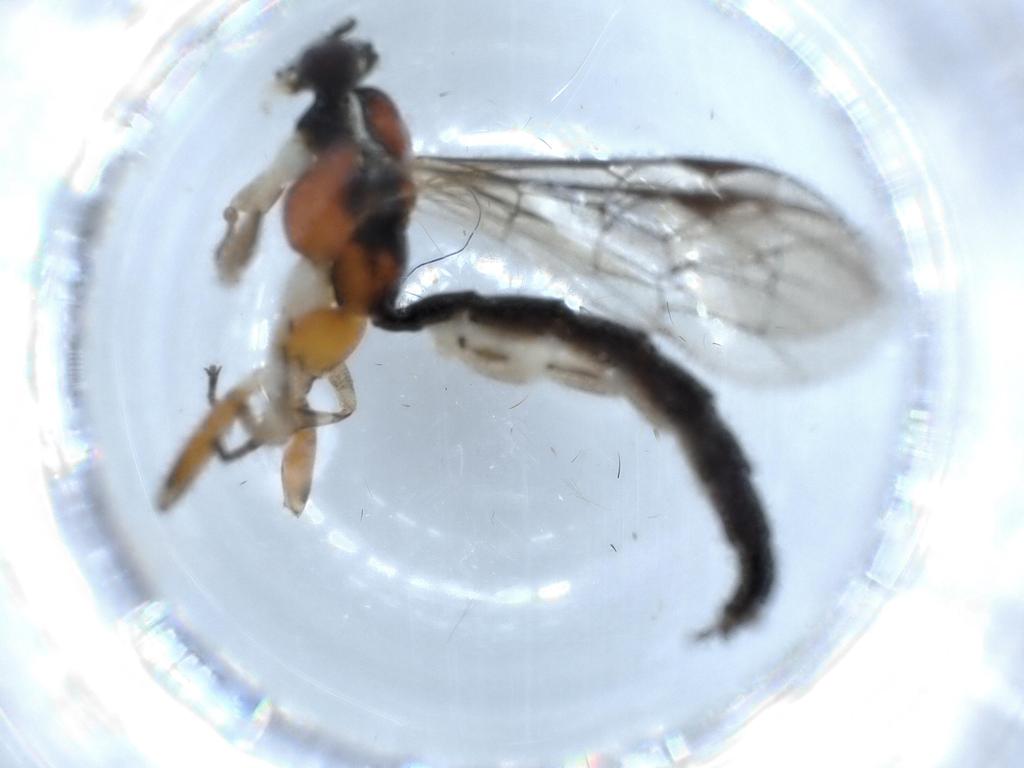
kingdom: Animalia
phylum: Arthropoda
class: Insecta
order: Hymenoptera
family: Ichneumonidae
